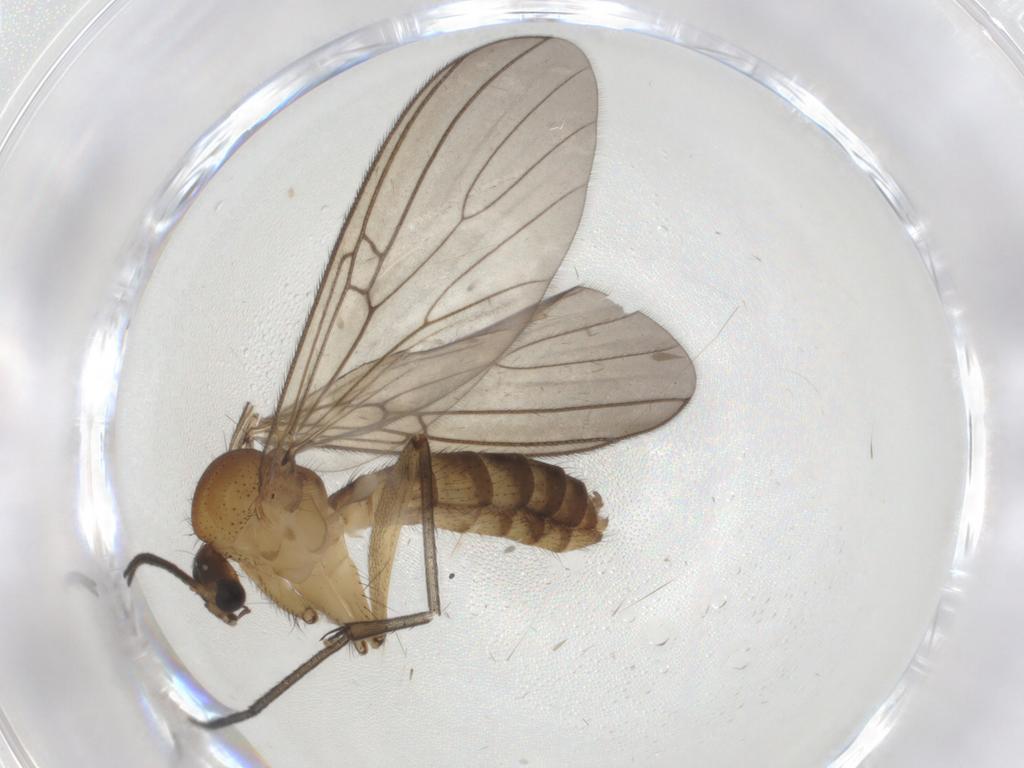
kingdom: Animalia
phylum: Arthropoda
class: Insecta
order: Diptera
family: Mycetophilidae
